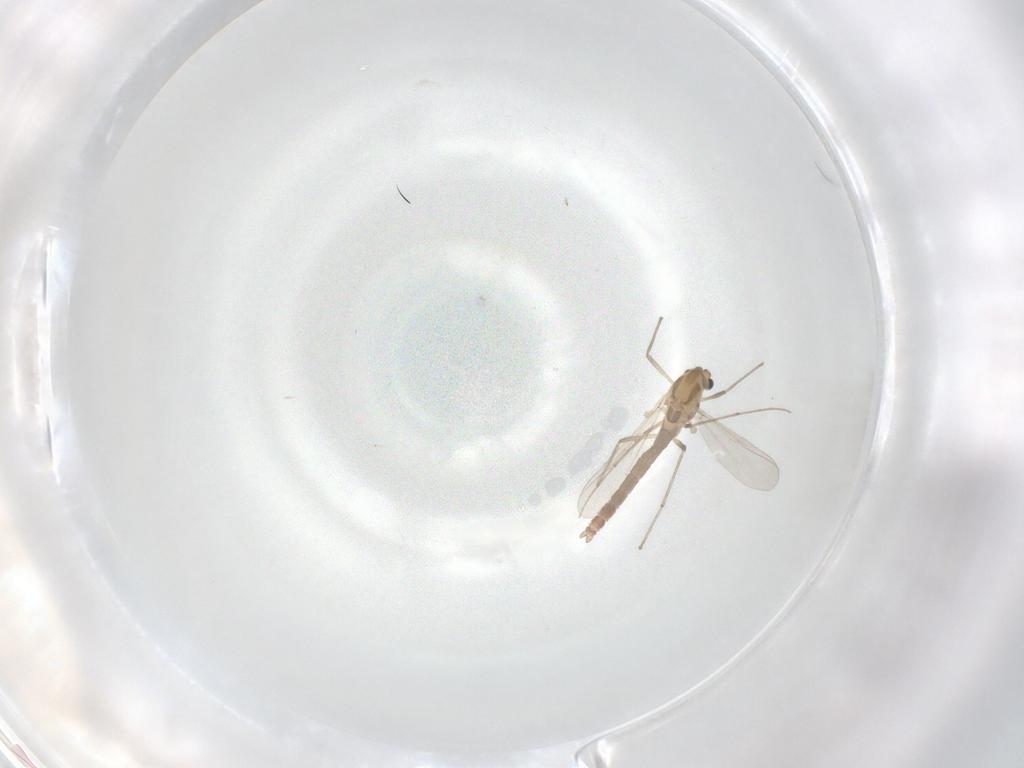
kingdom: Animalia
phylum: Arthropoda
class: Insecta
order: Diptera
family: Chironomidae
